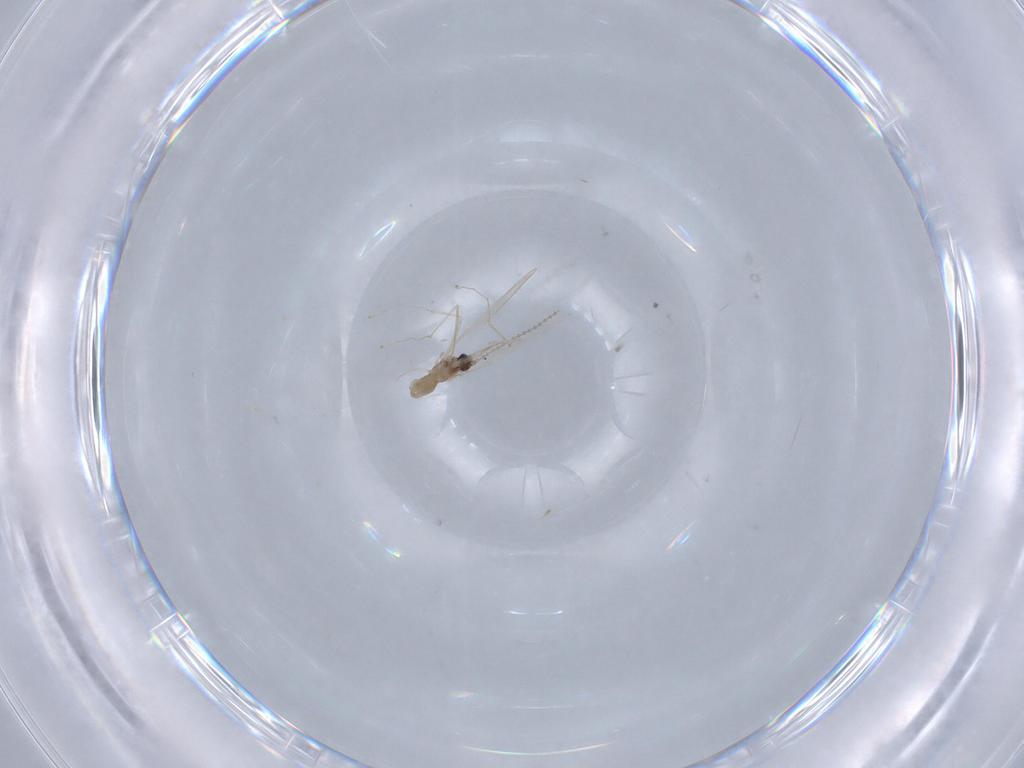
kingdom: Animalia
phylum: Arthropoda
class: Insecta
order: Diptera
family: Cecidomyiidae
